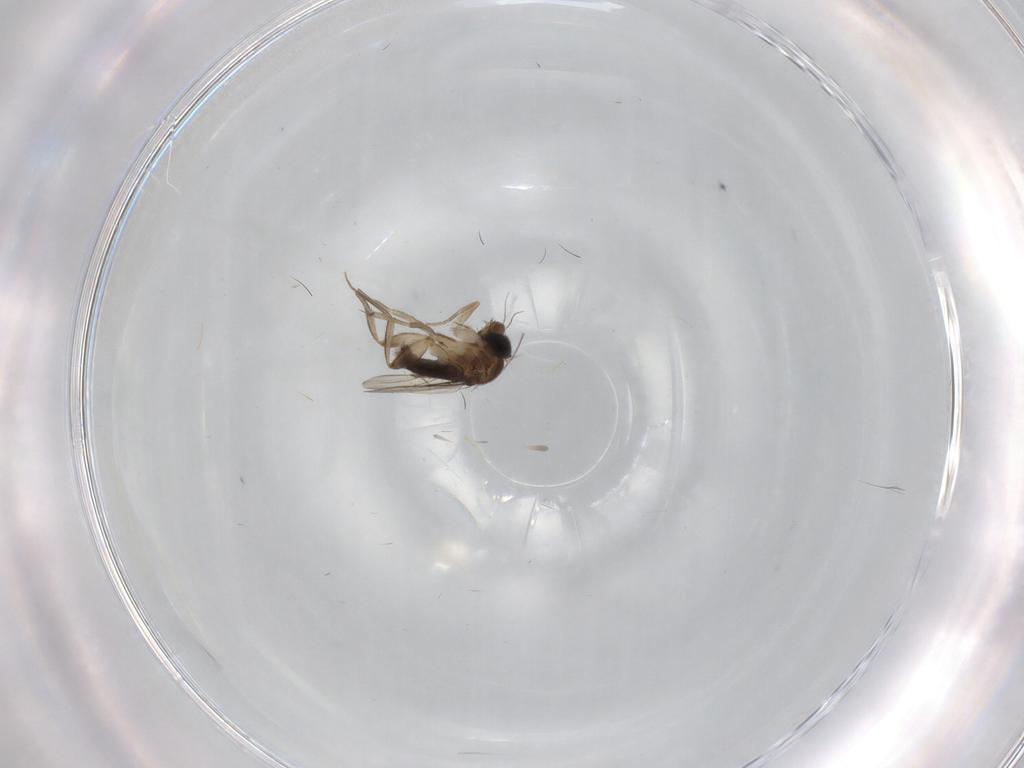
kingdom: Animalia
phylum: Arthropoda
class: Insecta
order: Diptera
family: Phoridae
